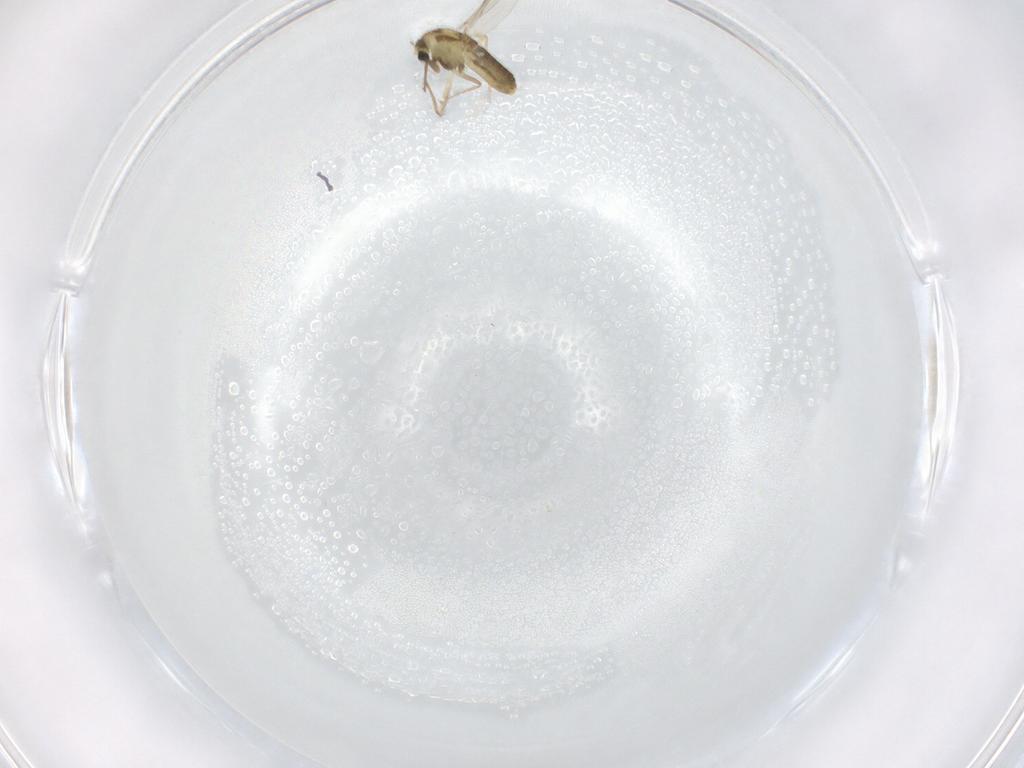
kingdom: Animalia
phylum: Arthropoda
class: Insecta
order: Diptera
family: Chironomidae
